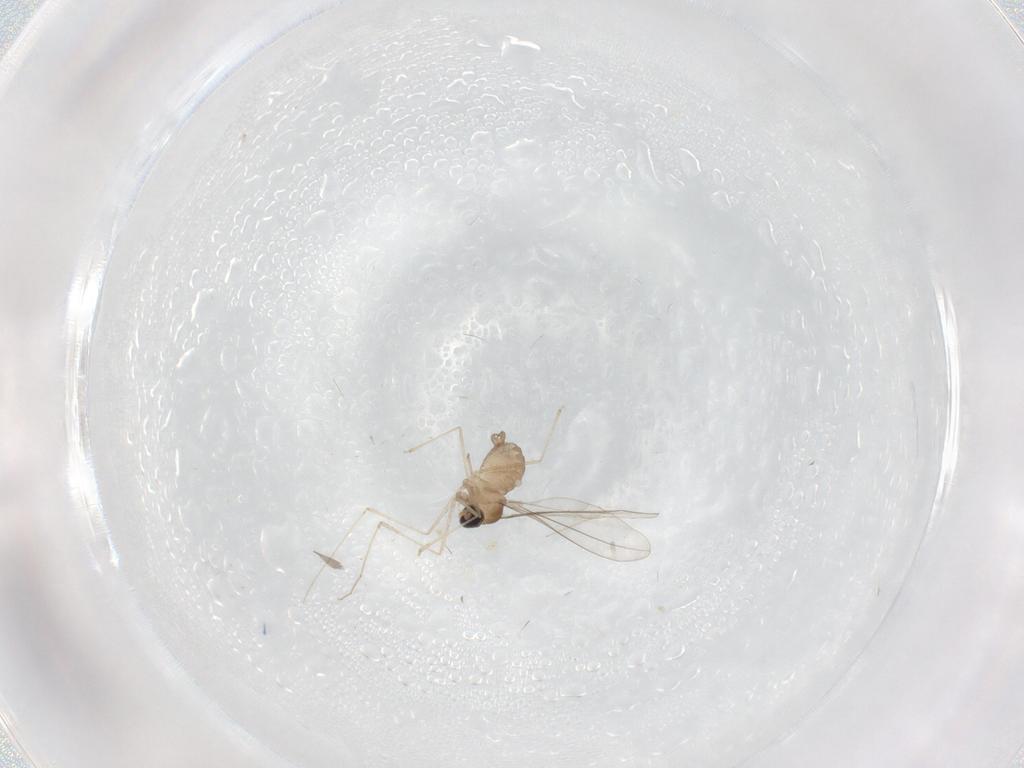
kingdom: Animalia
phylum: Arthropoda
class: Insecta
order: Diptera
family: Cecidomyiidae
